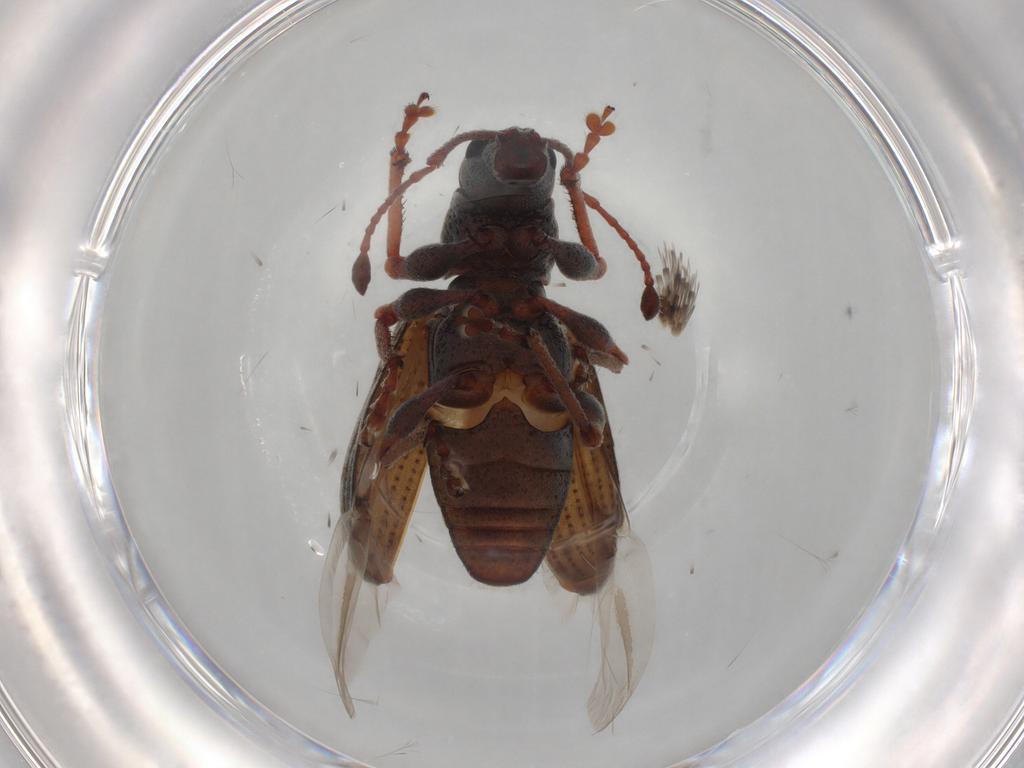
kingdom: Animalia
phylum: Arthropoda
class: Insecta
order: Coleoptera
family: Curculionidae
